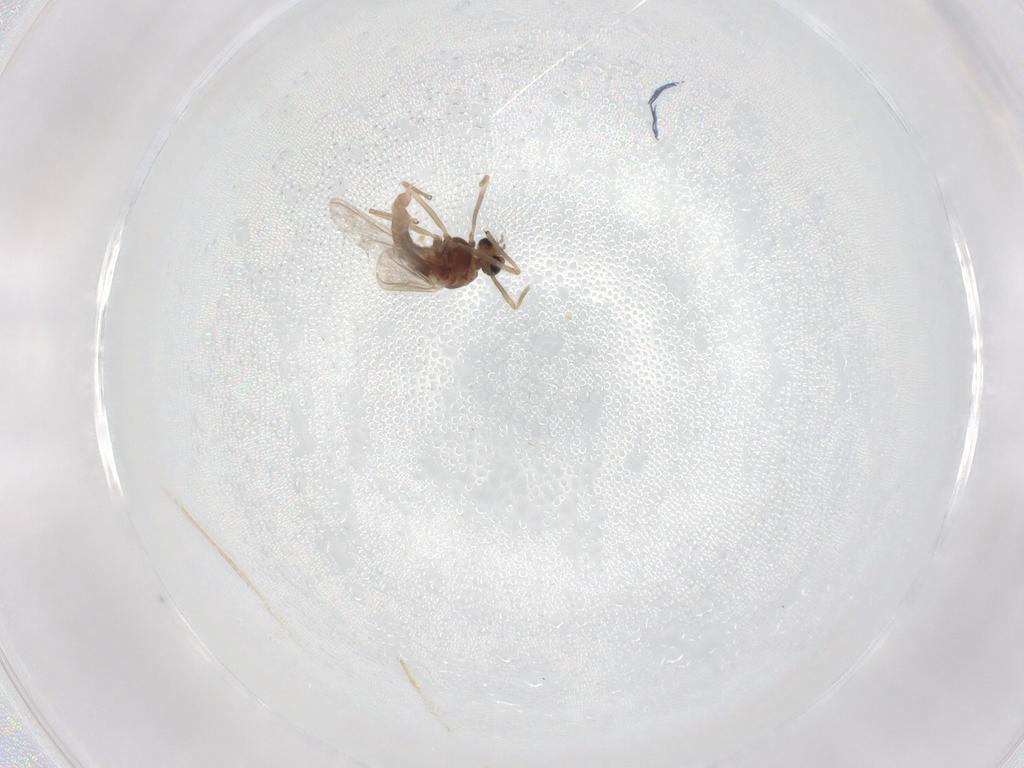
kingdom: Animalia
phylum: Arthropoda
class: Insecta
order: Diptera
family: Chironomidae
